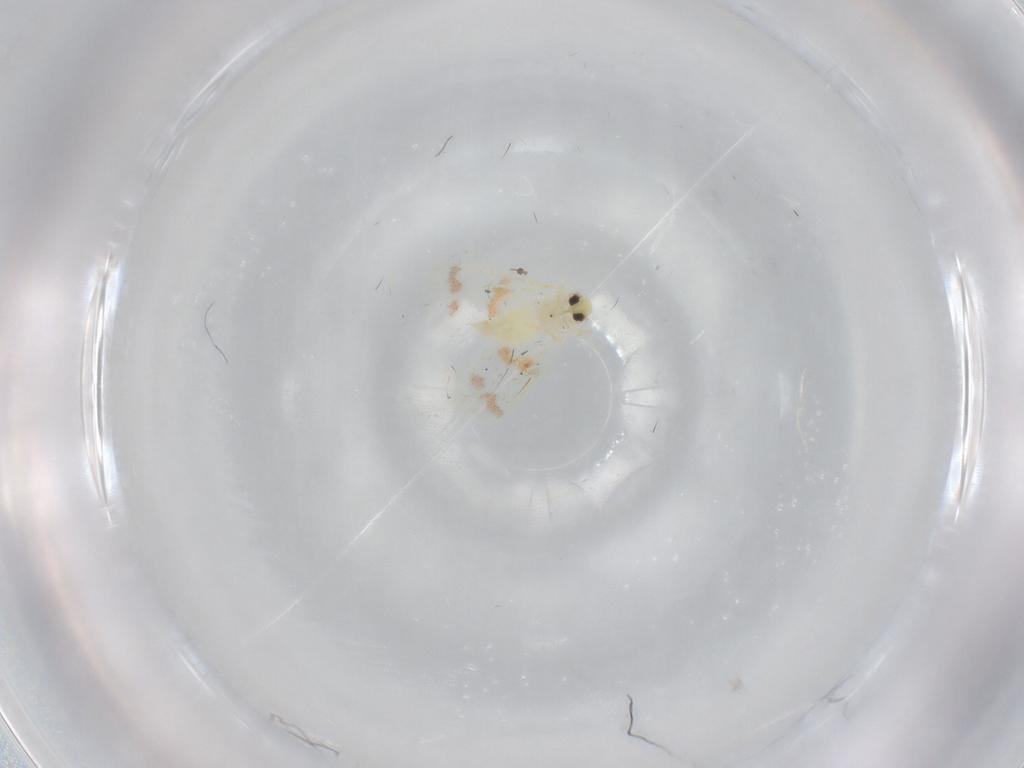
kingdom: Animalia
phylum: Arthropoda
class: Insecta
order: Hemiptera
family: Aleyrodidae
